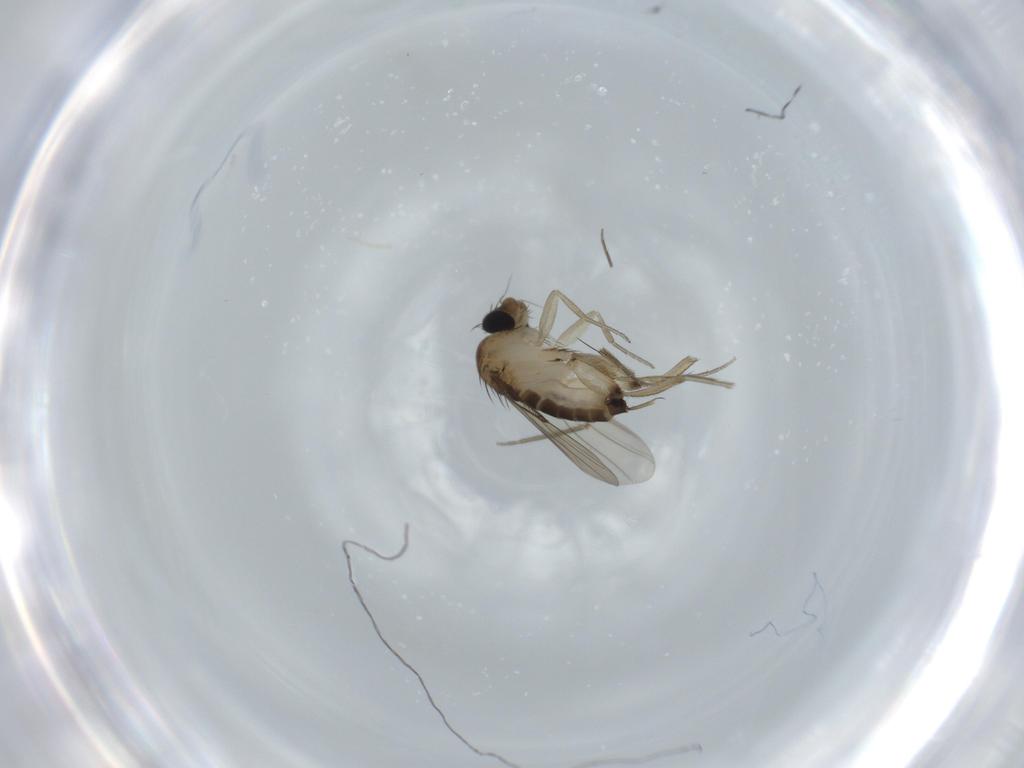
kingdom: Animalia
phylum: Arthropoda
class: Insecta
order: Diptera
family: Phoridae
